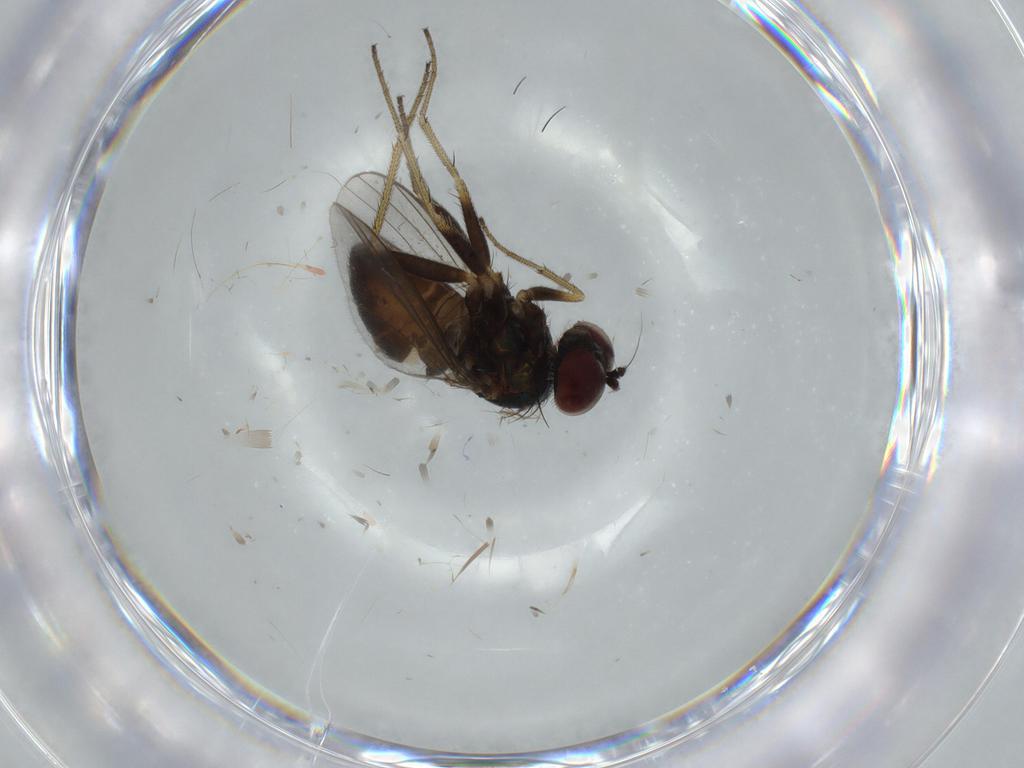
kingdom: Animalia
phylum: Arthropoda
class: Insecta
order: Diptera
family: Dolichopodidae
